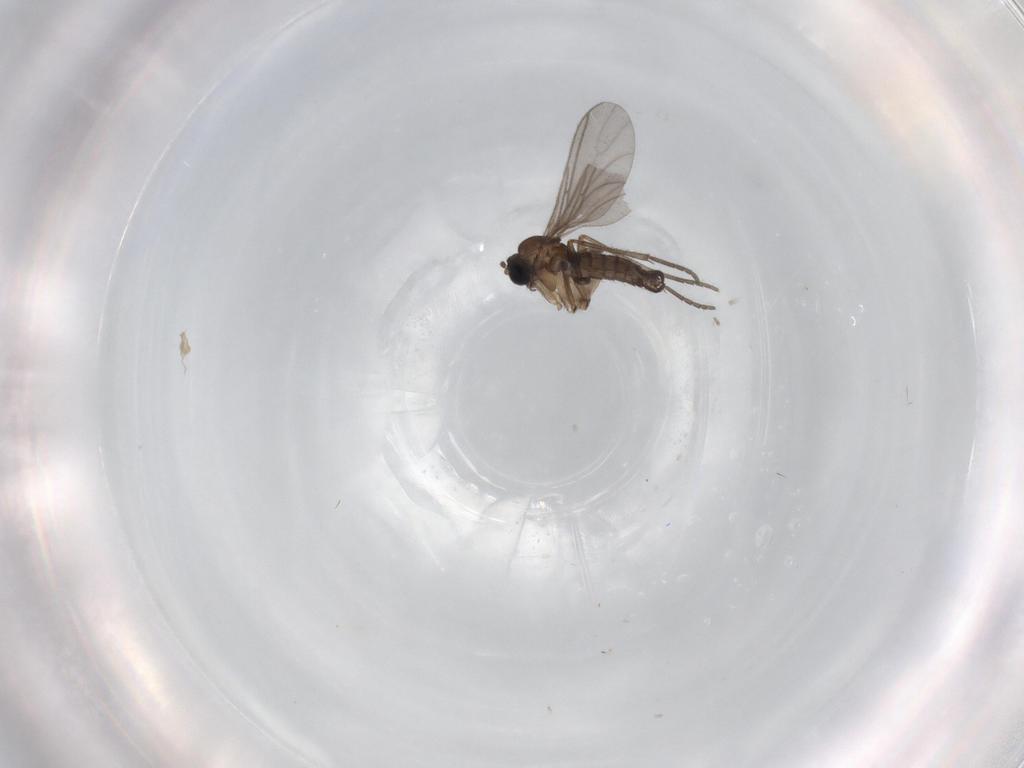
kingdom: Animalia
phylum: Arthropoda
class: Insecta
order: Diptera
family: Sciaridae
